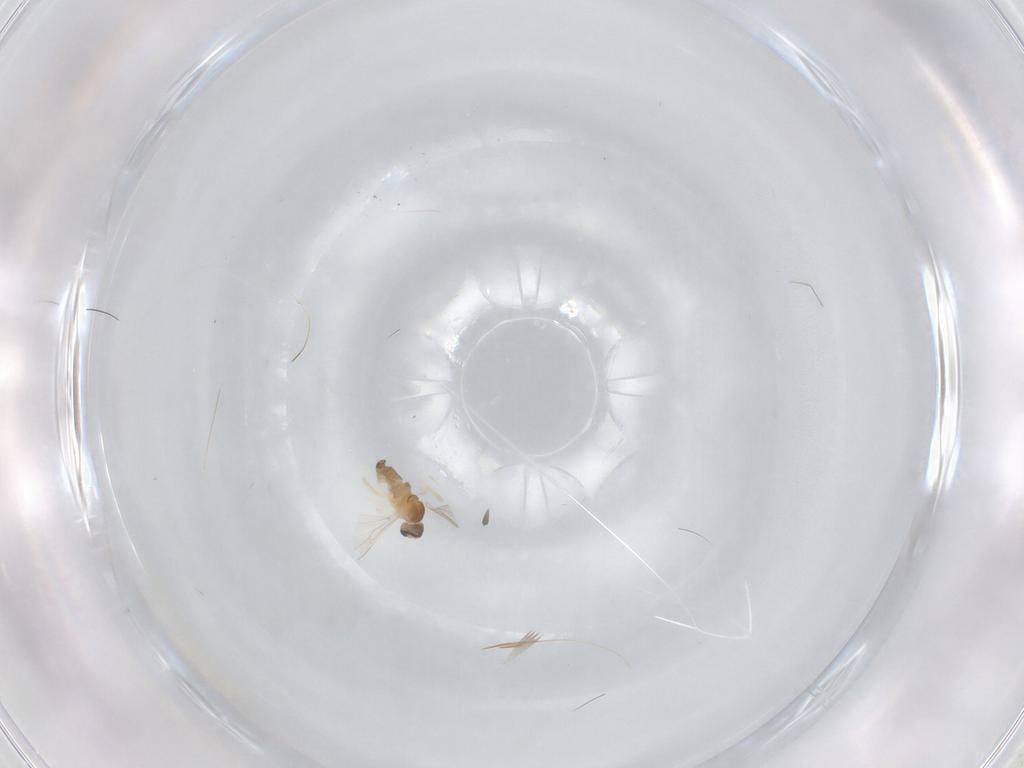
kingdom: Animalia
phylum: Arthropoda
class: Insecta
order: Diptera
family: Cecidomyiidae
